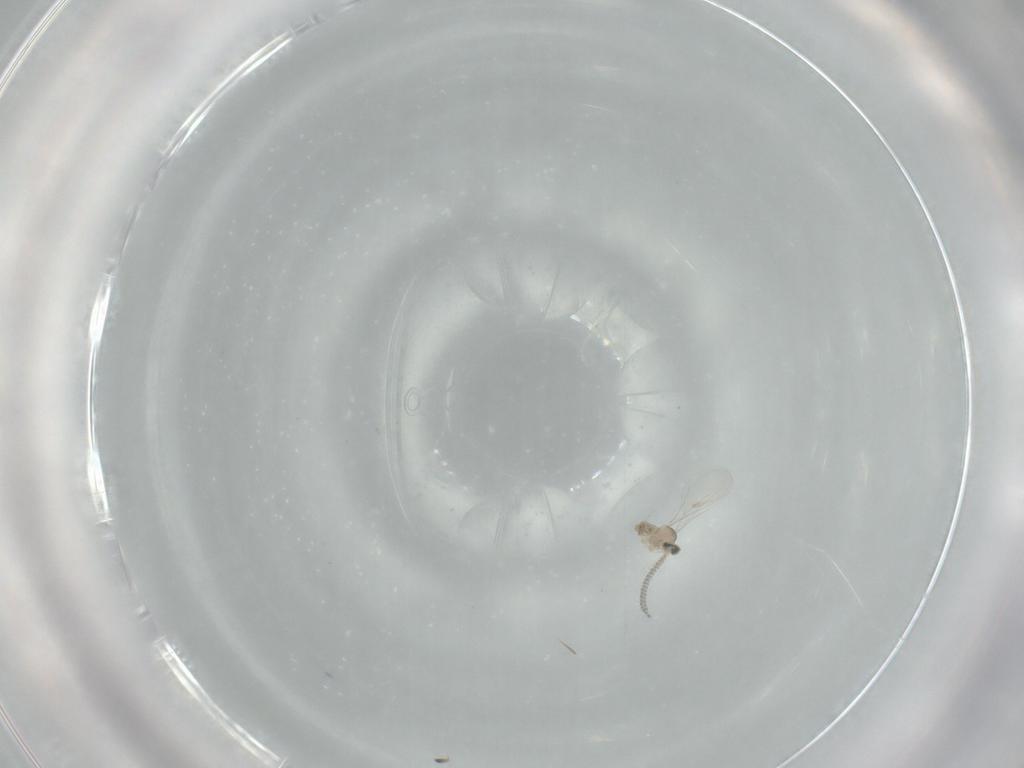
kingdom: Animalia
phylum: Arthropoda
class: Insecta
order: Diptera
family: Cecidomyiidae
